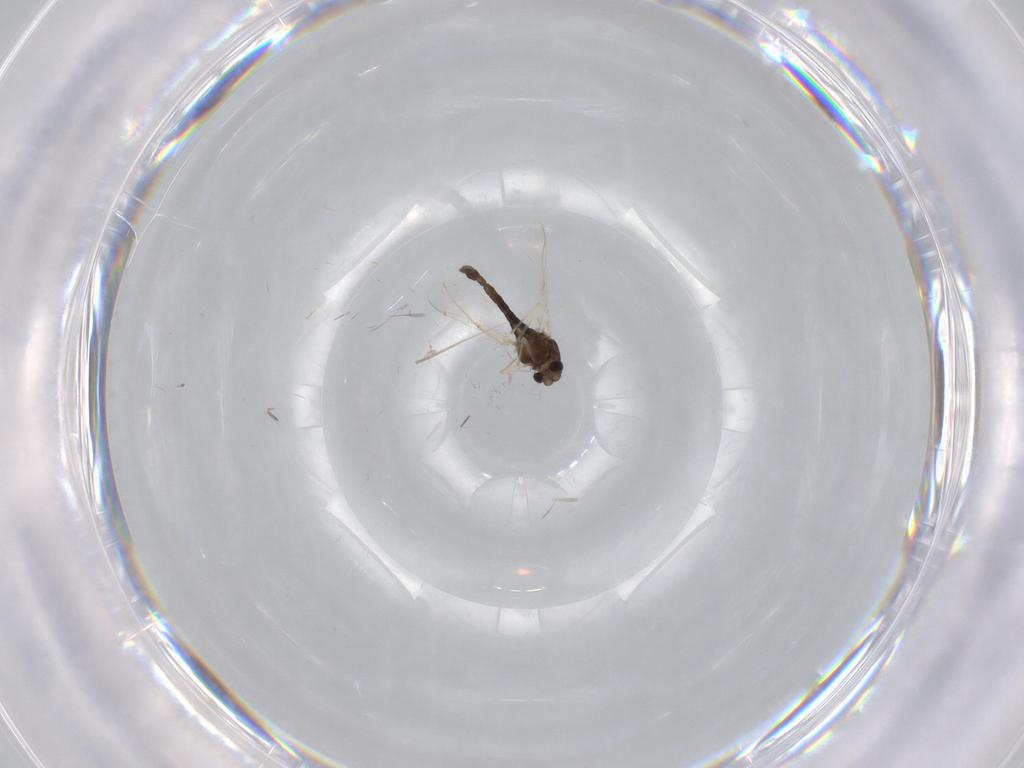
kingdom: Animalia
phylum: Arthropoda
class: Insecta
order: Diptera
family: Chironomidae
